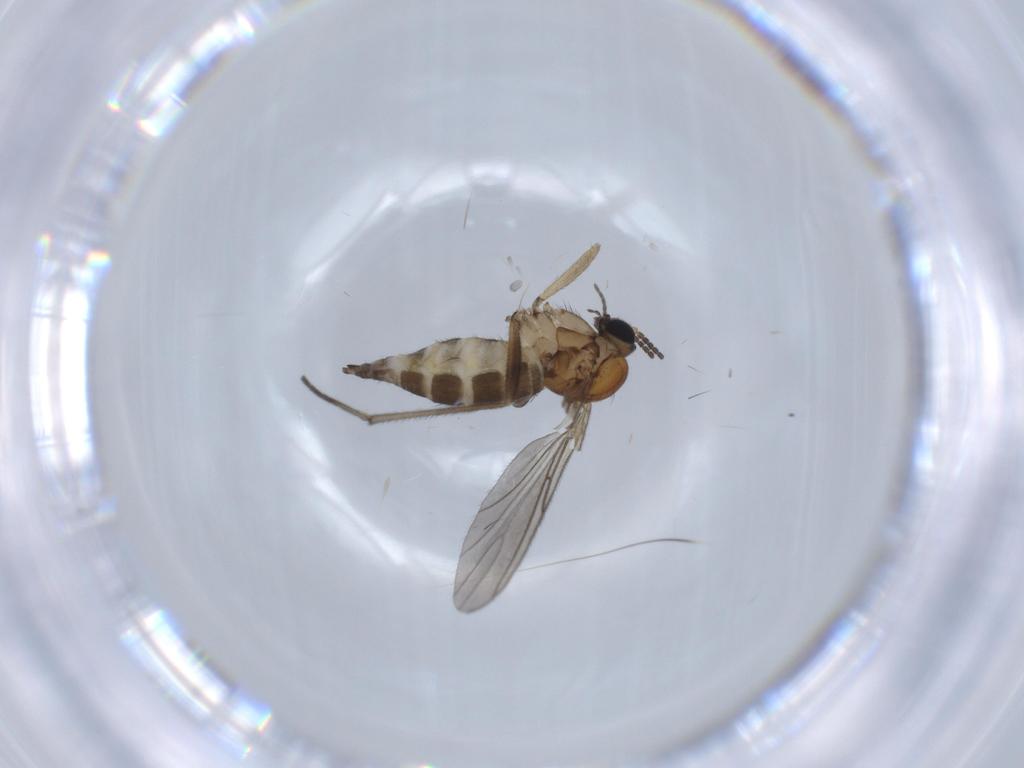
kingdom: Animalia
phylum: Arthropoda
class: Insecta
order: Diptera
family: Sciaridae
